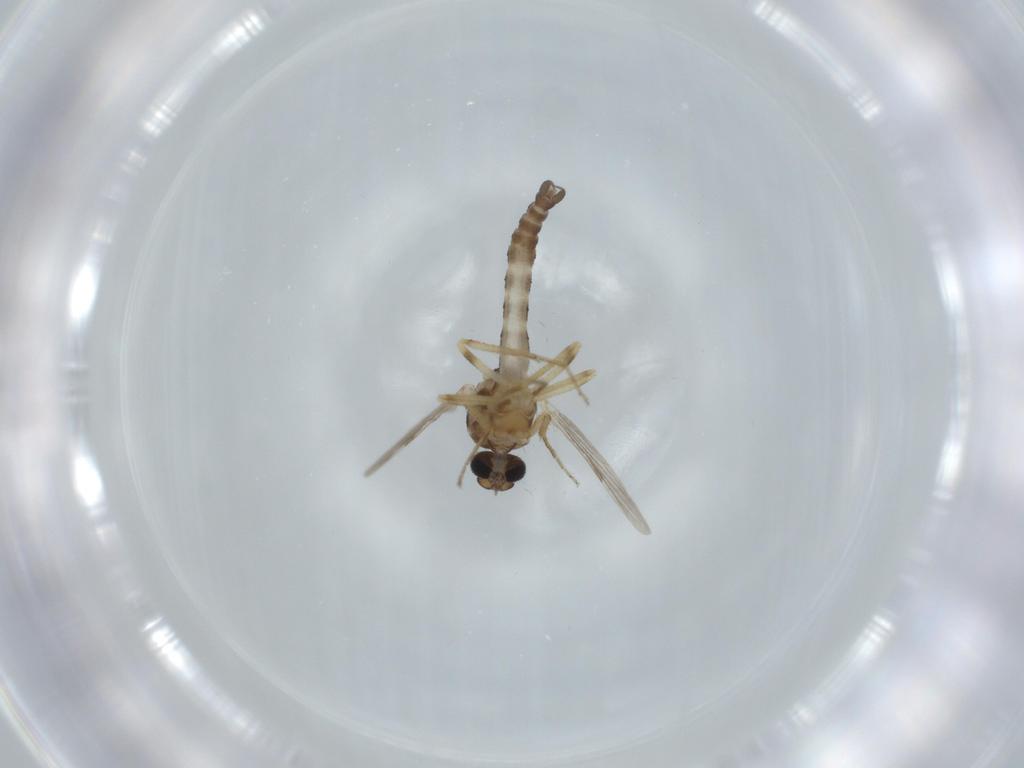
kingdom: Animalia
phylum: Arthropoda
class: Insecta
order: Diptera
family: Ceratopogonidae
